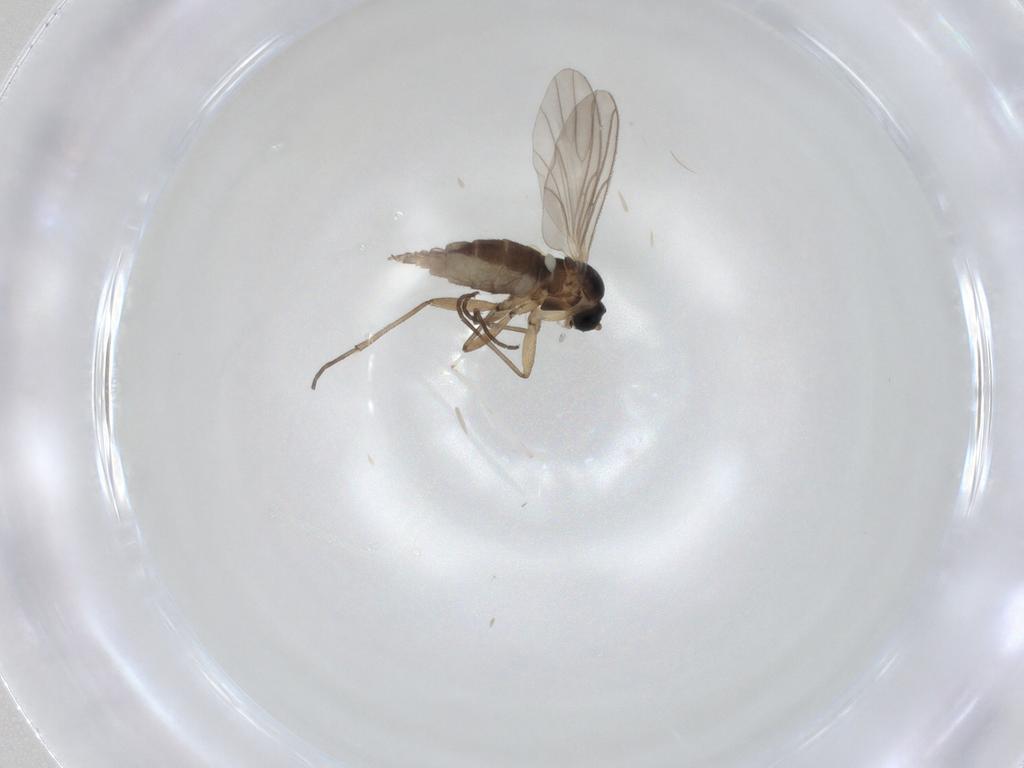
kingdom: Animalia
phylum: Arthropoda
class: Insecta
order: Diptera
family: Cecidomyiidae
